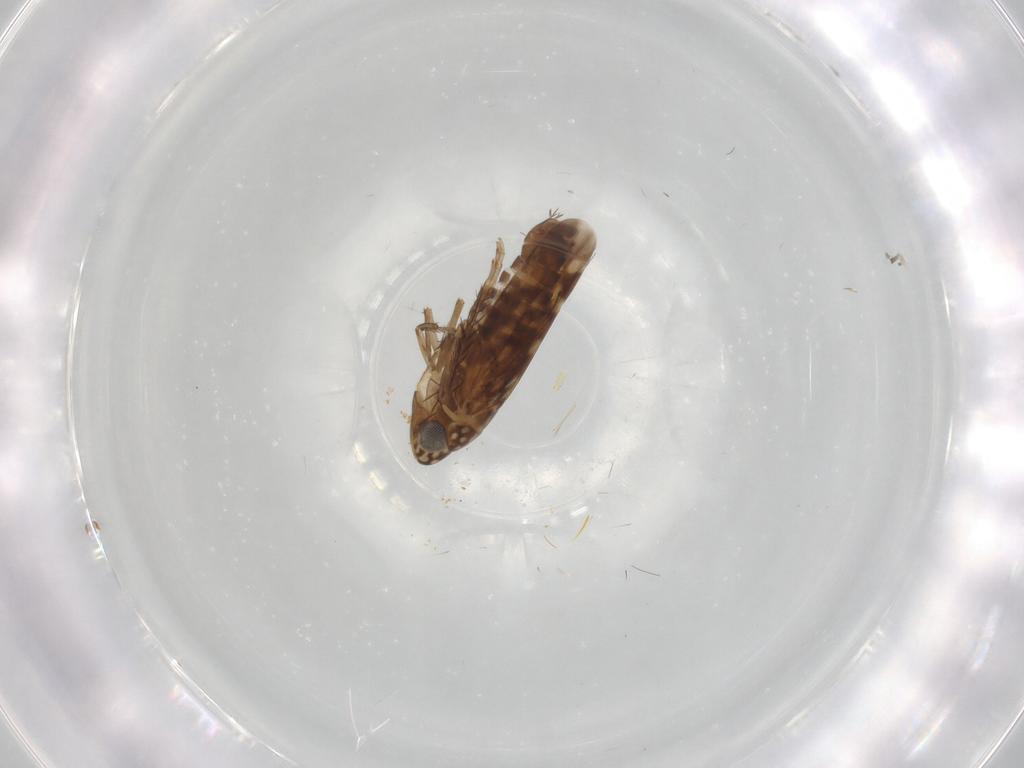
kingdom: Animalia
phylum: Arthropoda
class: Insecta
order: Hemiptera
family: Cicadellidae
